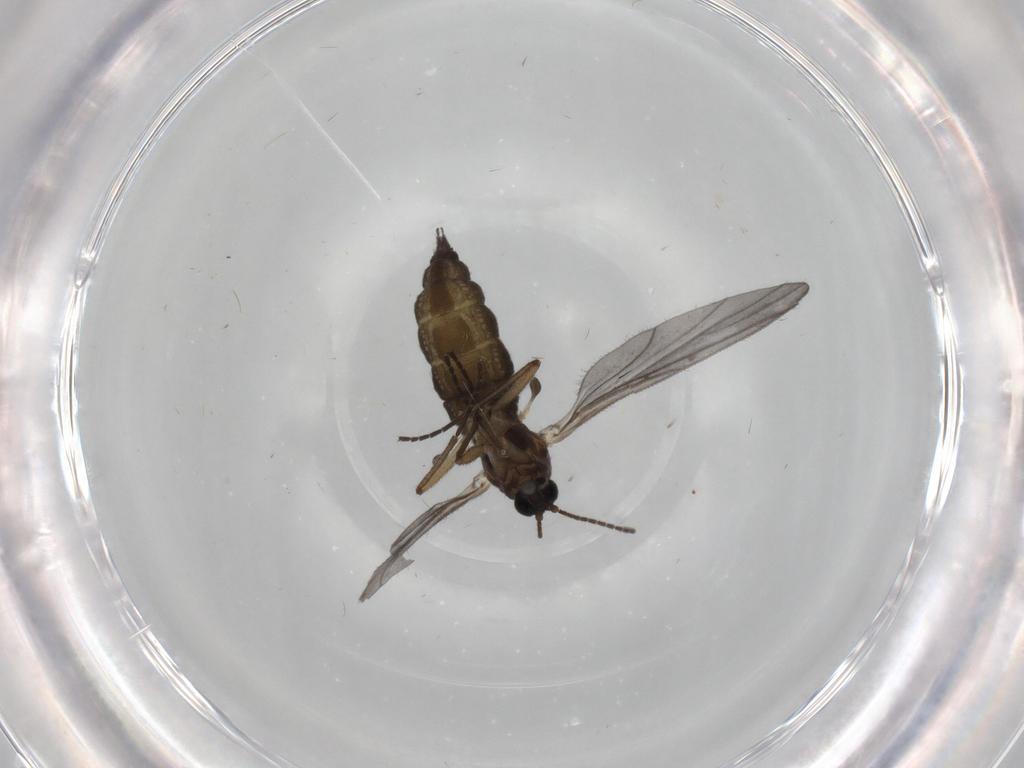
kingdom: Animalia
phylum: Arthropoda
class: Insecta
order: Diptera
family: Sciaridae
